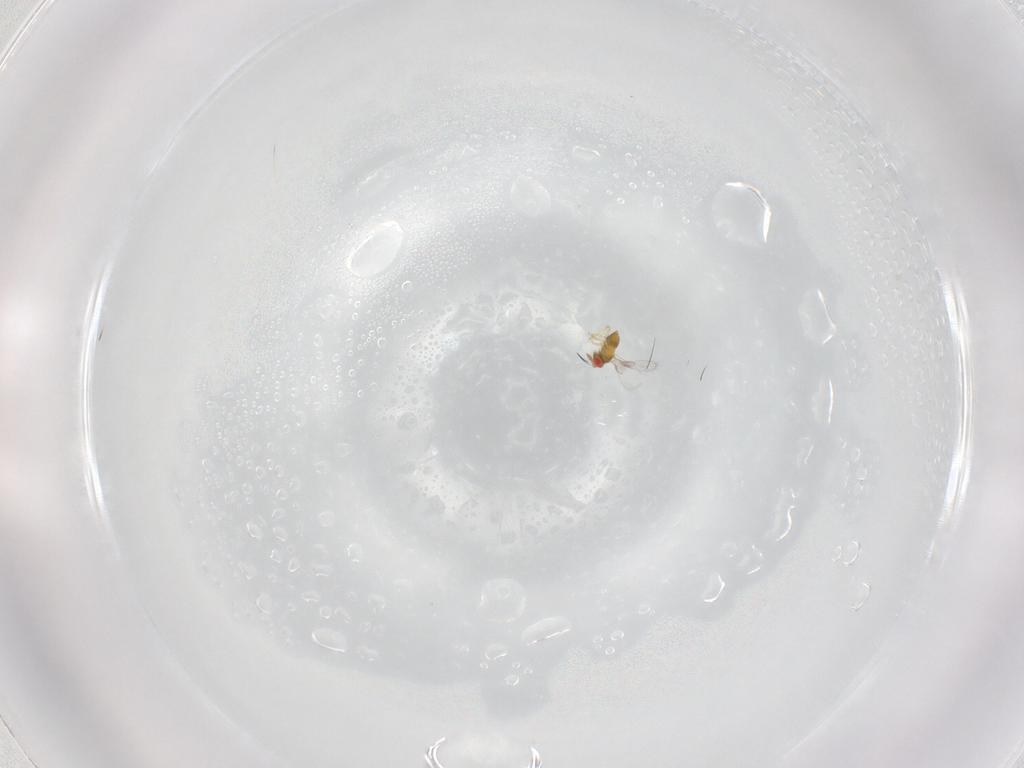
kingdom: Animalia
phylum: Arthropoda
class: Insecta
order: Hymenoptera
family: Trichogrammatidae
